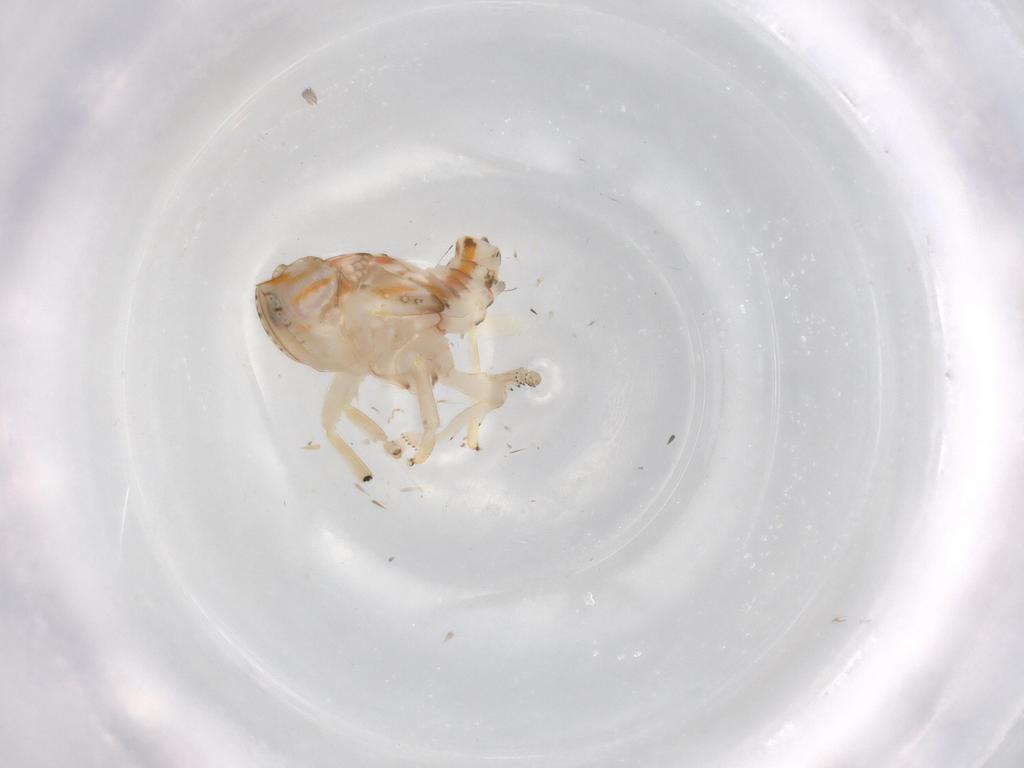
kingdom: Animalia
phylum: Arthropoda
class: Insecta
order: Hemiptera
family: Nogodinidae
